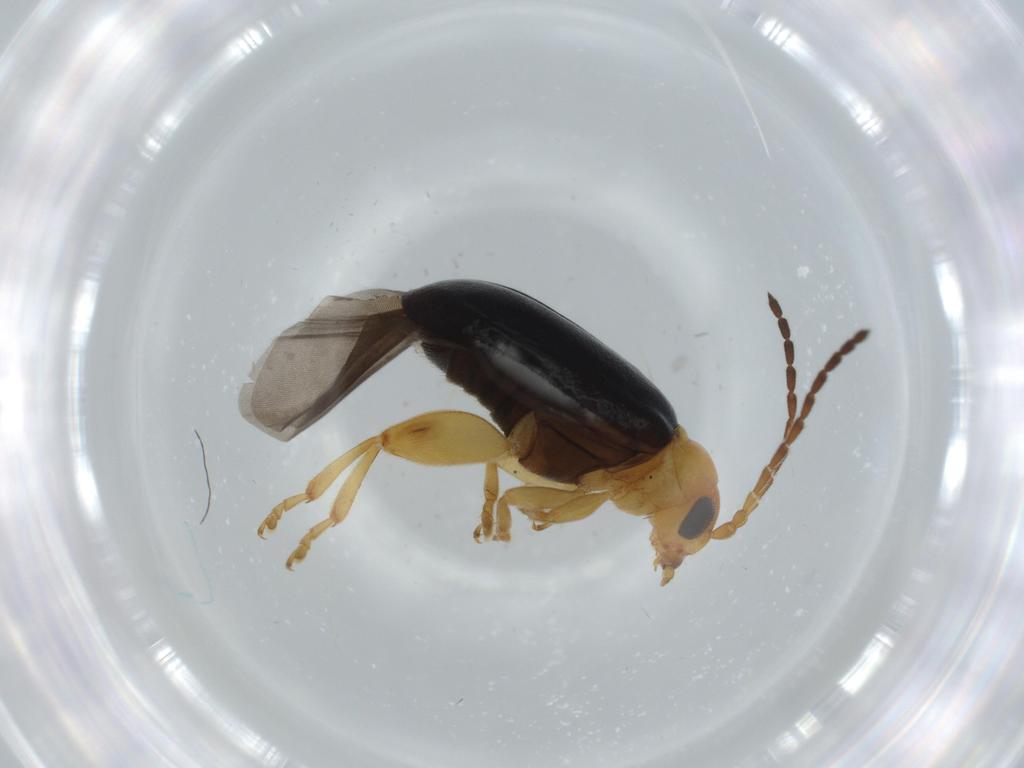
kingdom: Animalia
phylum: Arthropoda
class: Insecta
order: Coleoptera
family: Chrysomelidae
